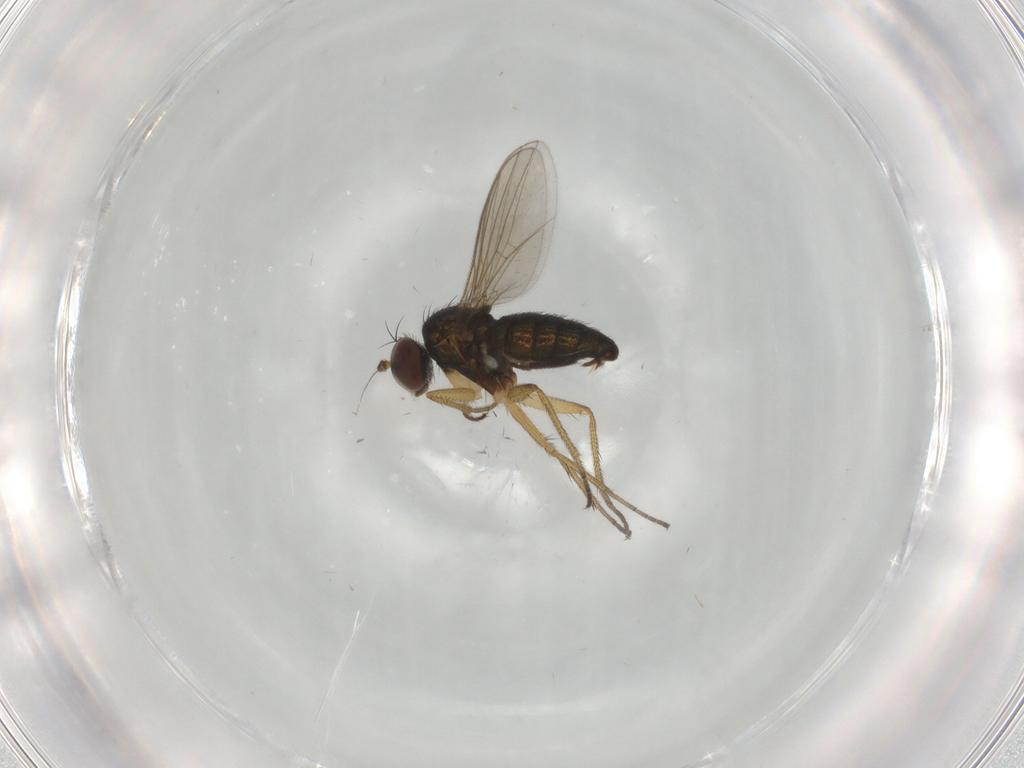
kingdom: Animalia
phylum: Arthropoda
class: Insecta
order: Diptera
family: Dolichopodidae
